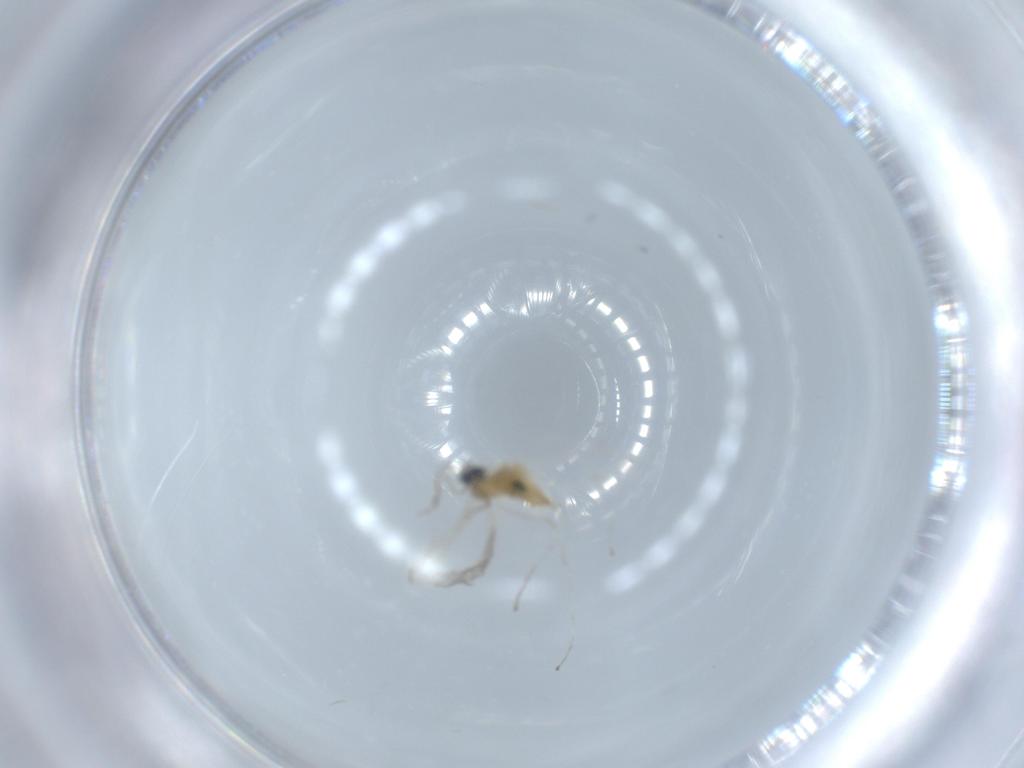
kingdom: Animalia
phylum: Arthropoda
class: Insecta
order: Diptera
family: Cecidomyiidae
